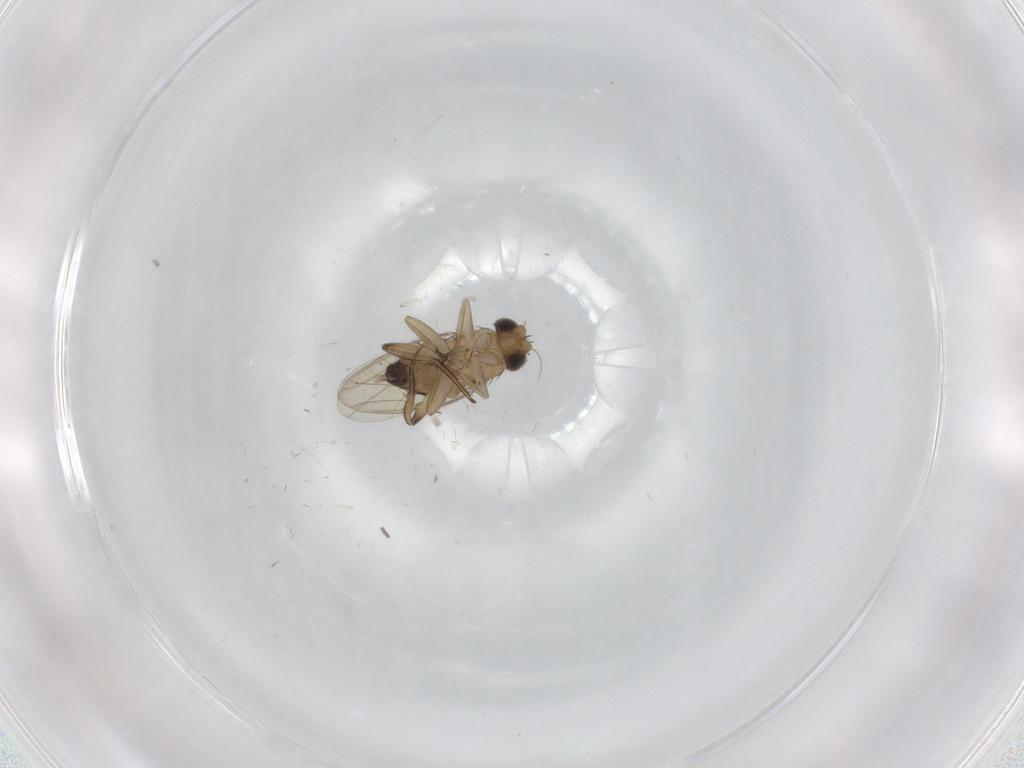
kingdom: Animalia
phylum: Arthropoda
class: Insecta
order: Diptera
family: Phoridae
